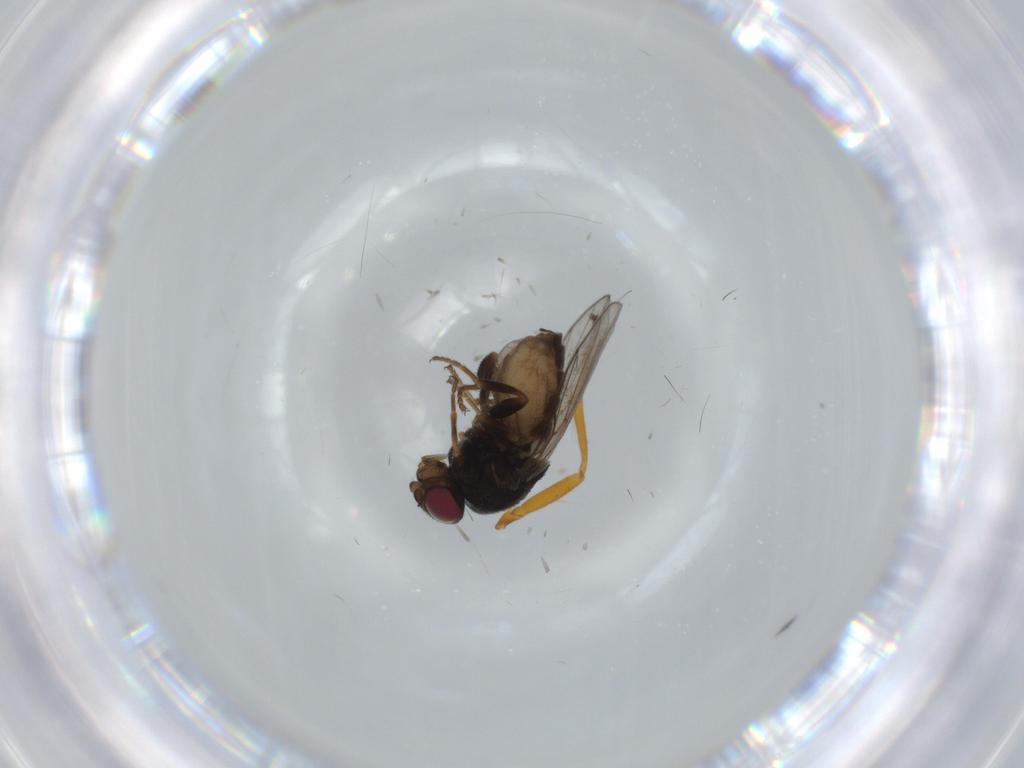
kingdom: Animalia
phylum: Arthropoda
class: Insecta
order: Diptera
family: Chloropidae
